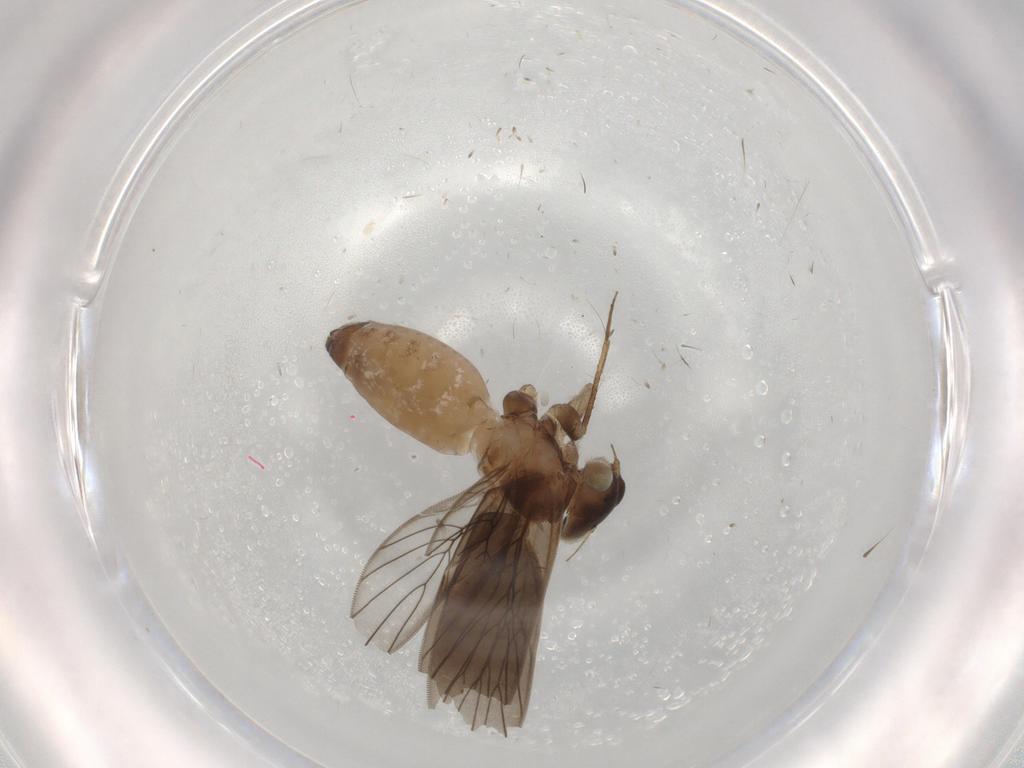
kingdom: Animalia
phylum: Arthropoda
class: Insecta
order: Psocodea
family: Lepidopsocidae
